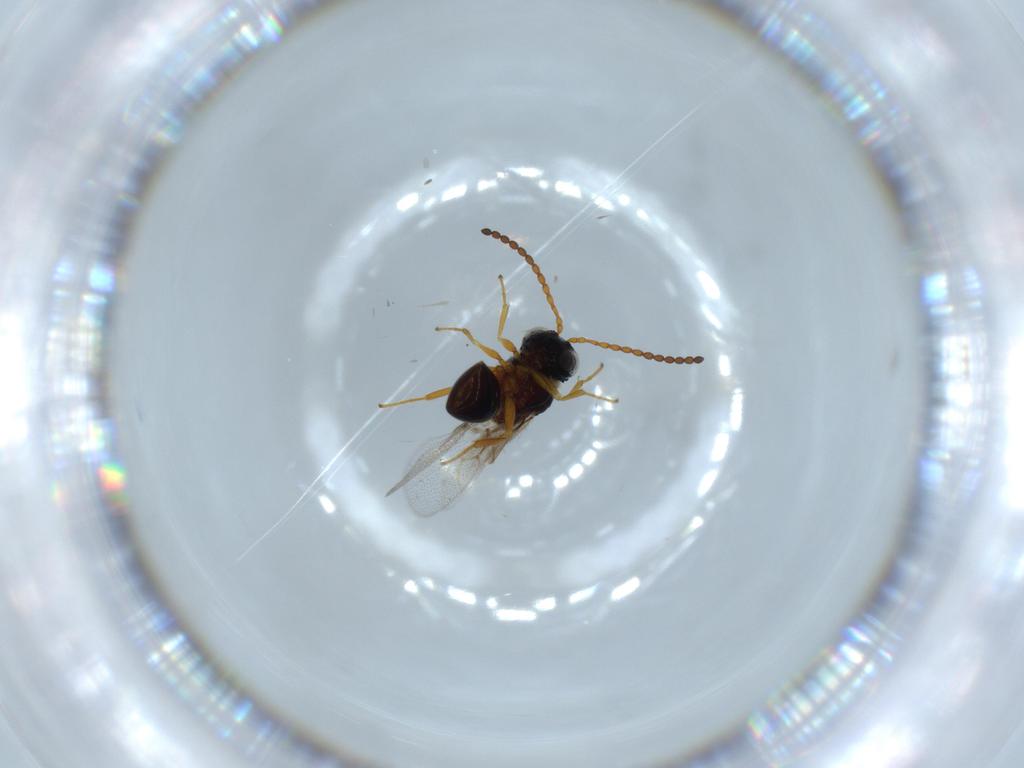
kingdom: Animalia
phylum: Arthropoda
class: Insecta
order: Hymenoptera
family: Figitidae
